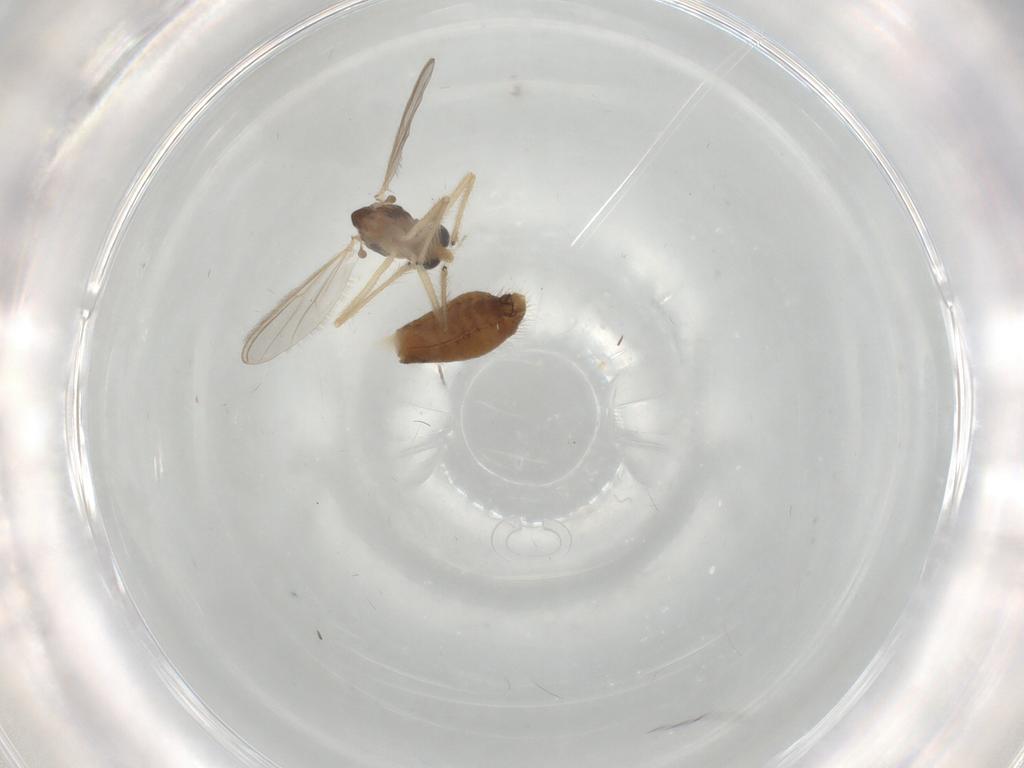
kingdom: Animalia
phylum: Arthropoda
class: Insecta
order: Diptera
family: Chironomidae
